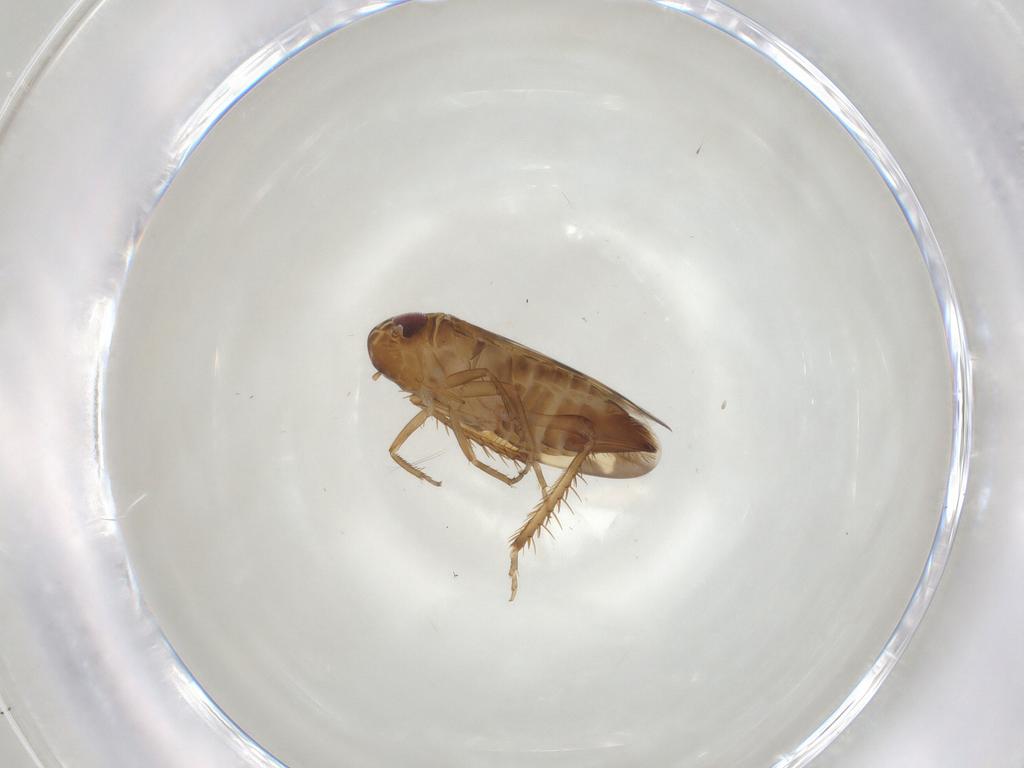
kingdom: Animalia
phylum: Arthropoda
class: Insecta
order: Hemiptera
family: Cicadellidae
